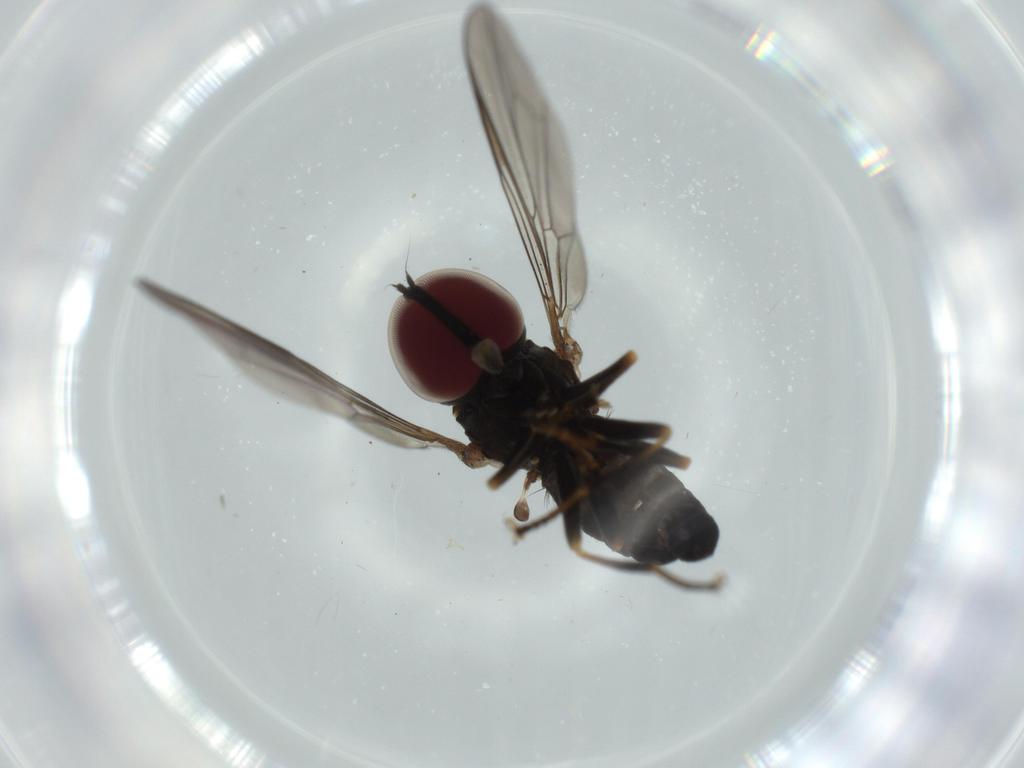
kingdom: Animalia
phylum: Arthropoda
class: Insecta
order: Diptera
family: Pipunculidae
